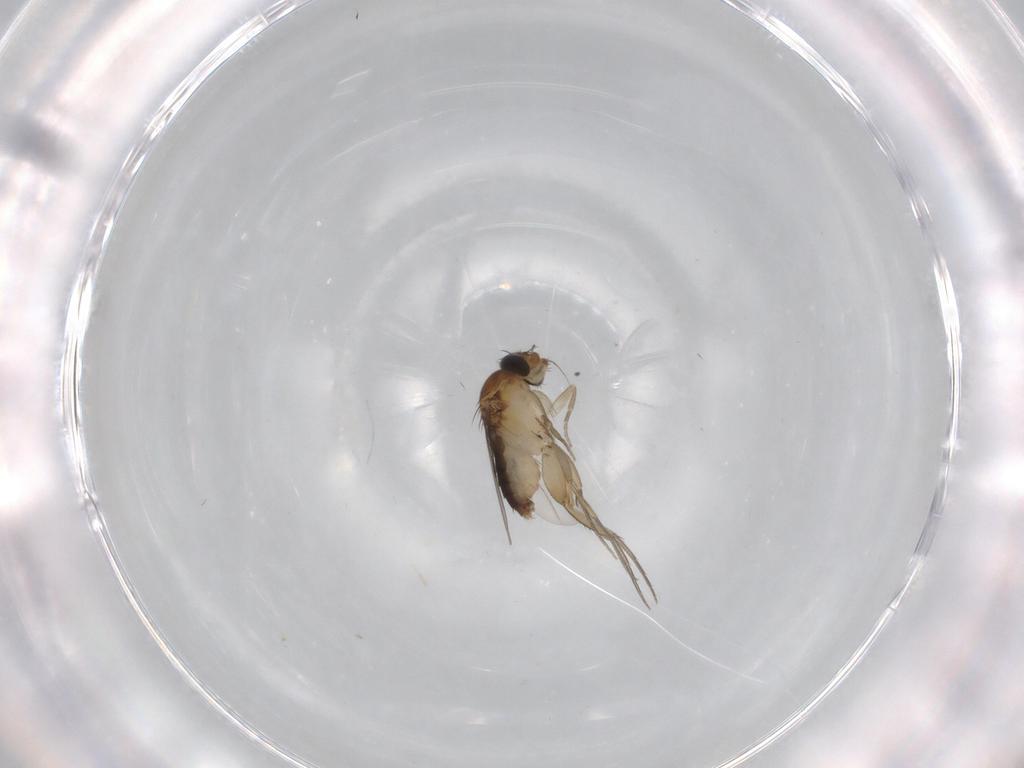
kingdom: Animalia
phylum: Arthropoda
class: Insecta
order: Diptera
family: Phoridae
